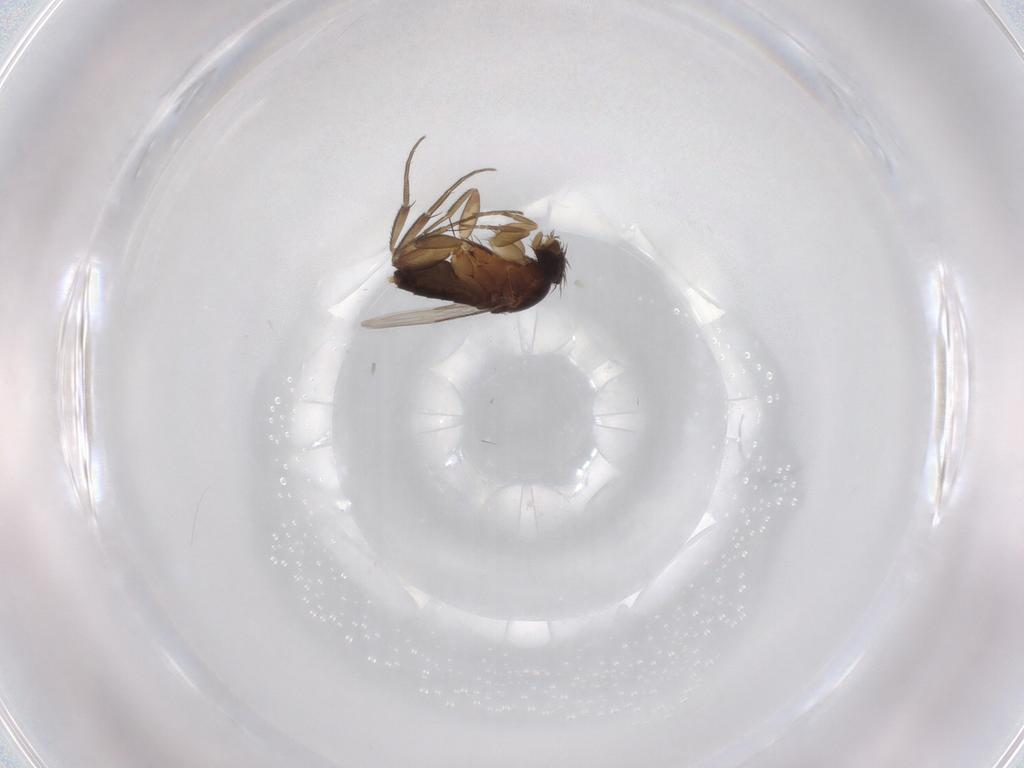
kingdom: Animalia
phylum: Arthropoda
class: Insecta
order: Diptera
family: Phoridae
